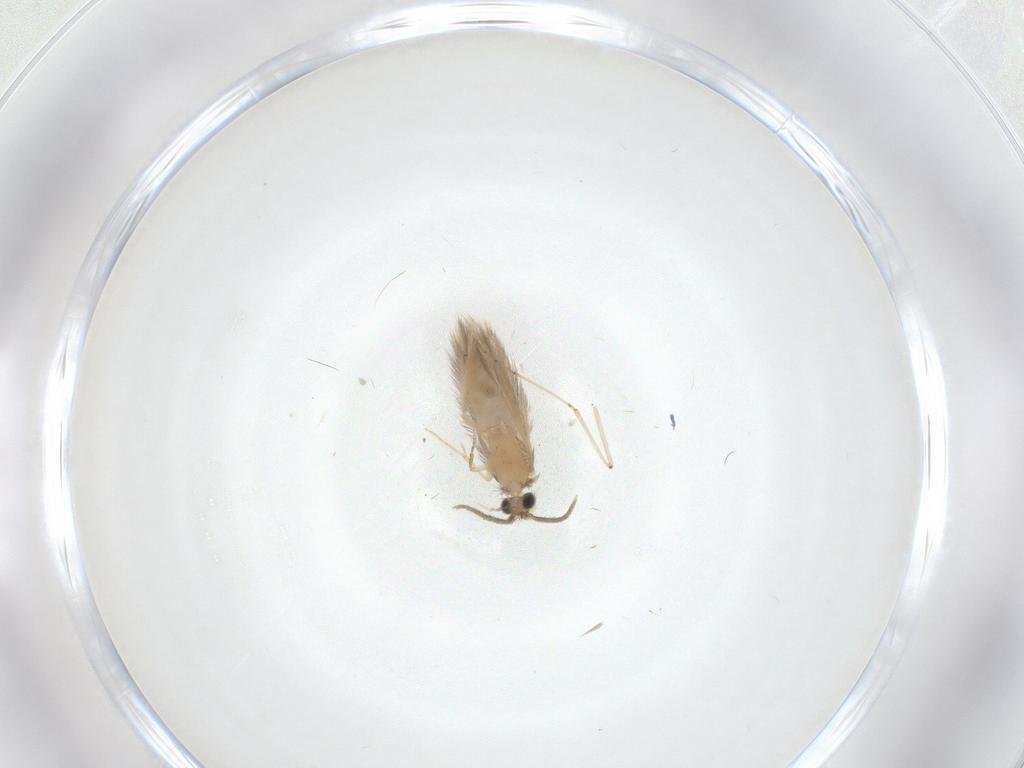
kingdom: Animalia
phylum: Arthropoda
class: Insecta
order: Trichoptera
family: Hydroptilidae
